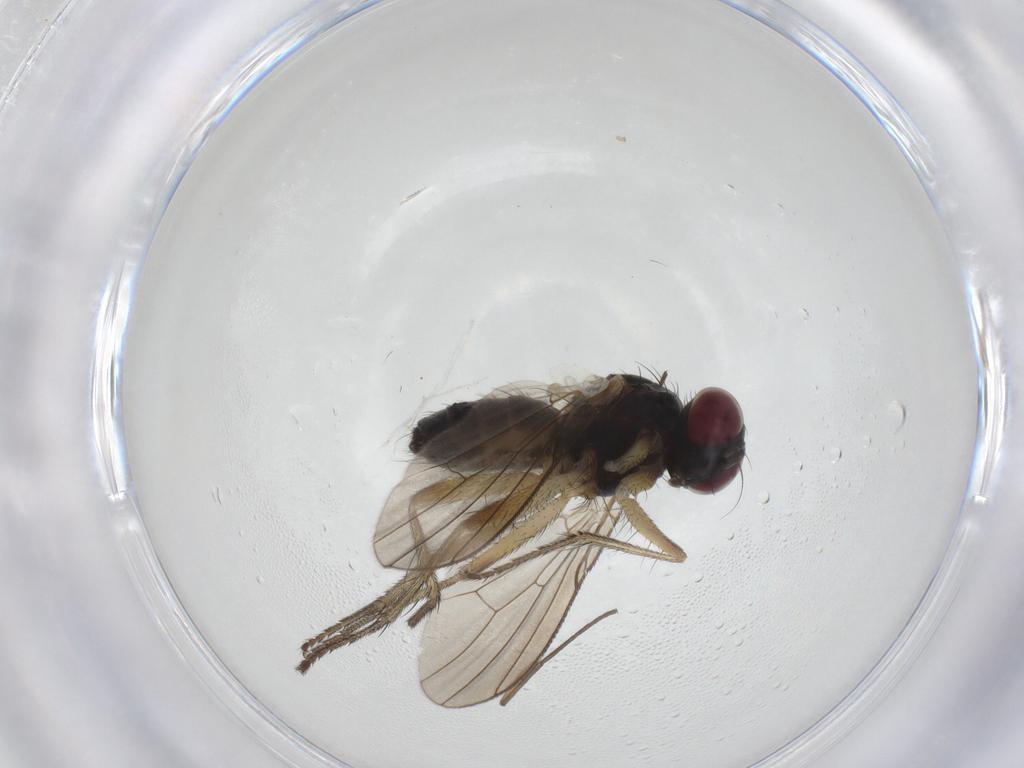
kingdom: Animalia
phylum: Arthropoda
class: Insecta
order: Diptera
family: Muscidae
